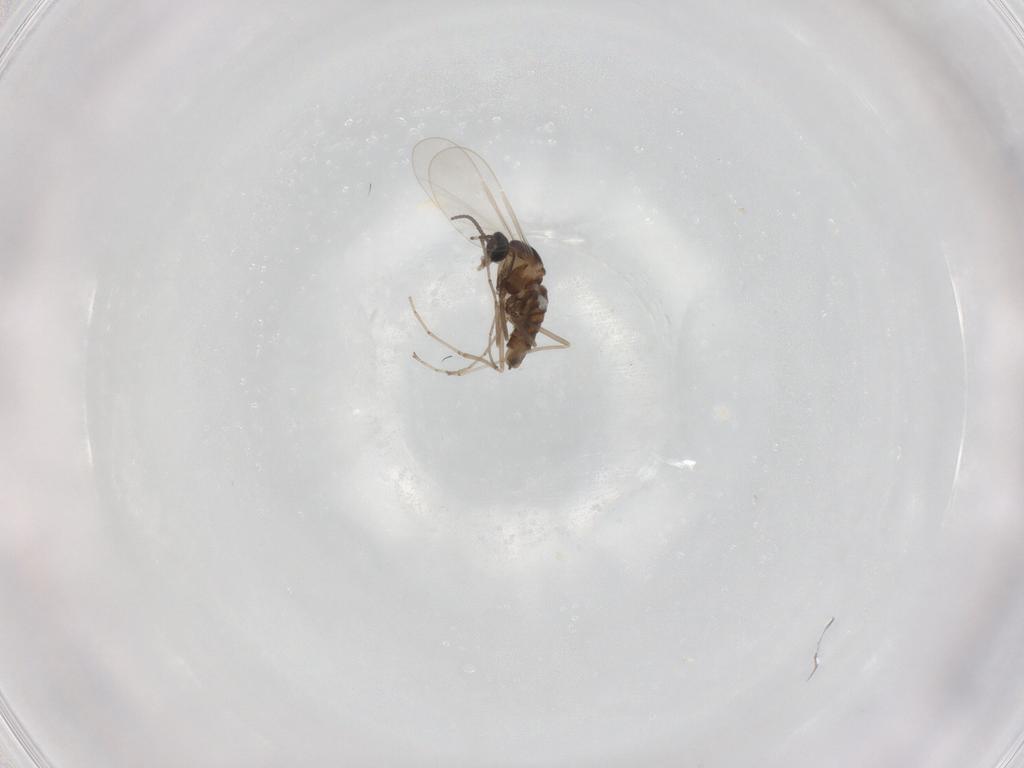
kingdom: Animalia
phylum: Arthropoda
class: Insecta
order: Diptera
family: Cecidomyiidae
